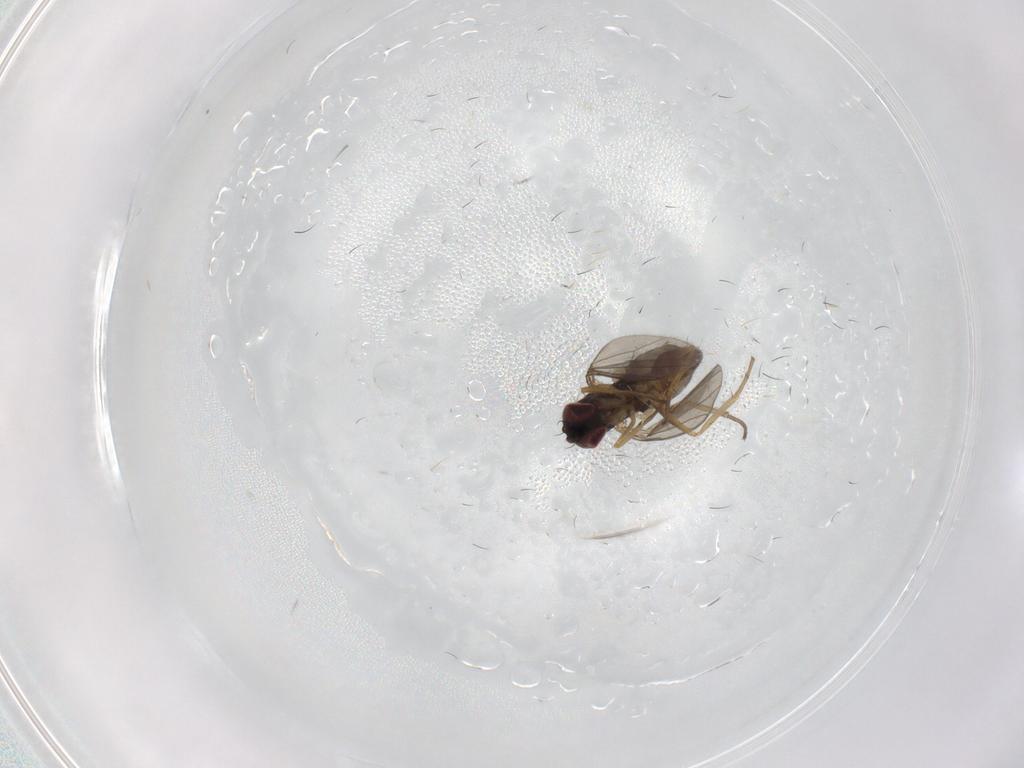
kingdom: Animalia
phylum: Arthropoda
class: Insecta
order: Diptera
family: Dolichopodidae
